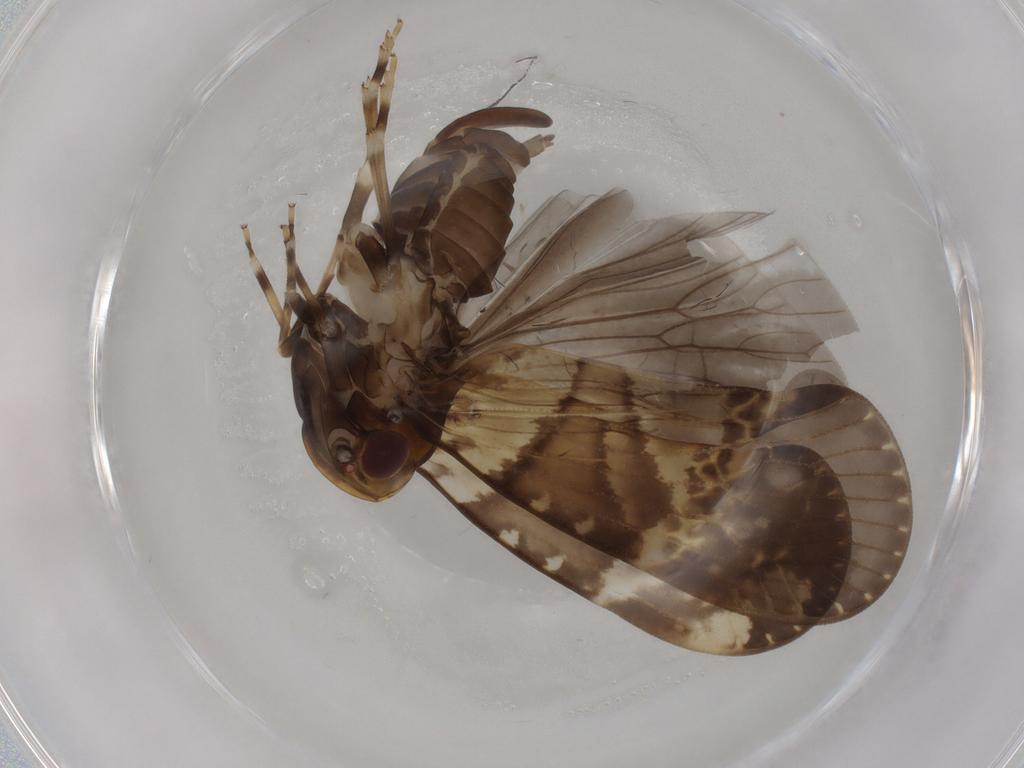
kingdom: Animalia
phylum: Arthropoda
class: Insecta
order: Hemiptera
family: Cixiidae
